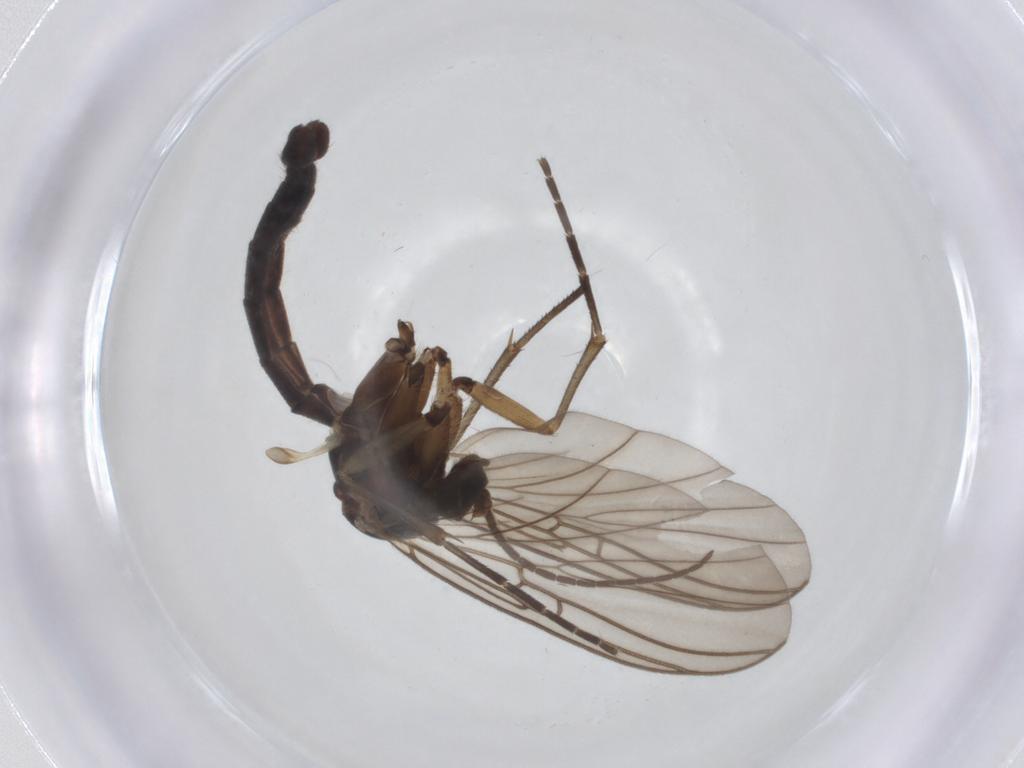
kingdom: Animalia
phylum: Arthropoda
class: Insecta
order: Diptera
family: Mycetophilidae
